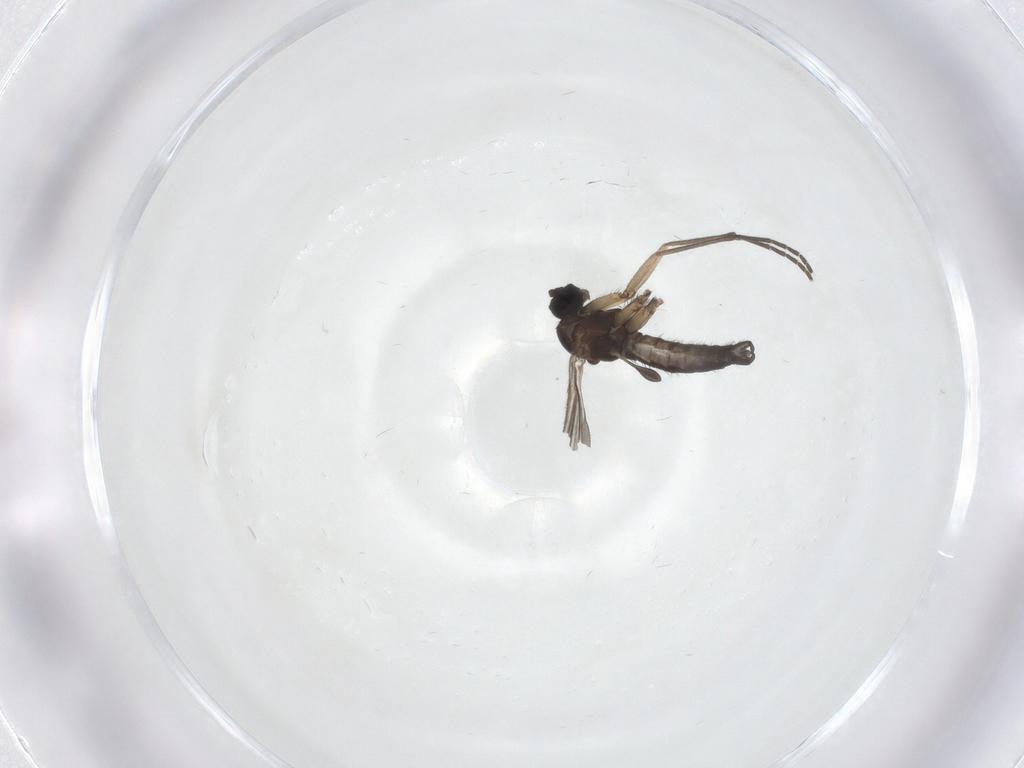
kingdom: Animalia
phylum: Arthropoda
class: Insecta
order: Diptera
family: Sciaridae
